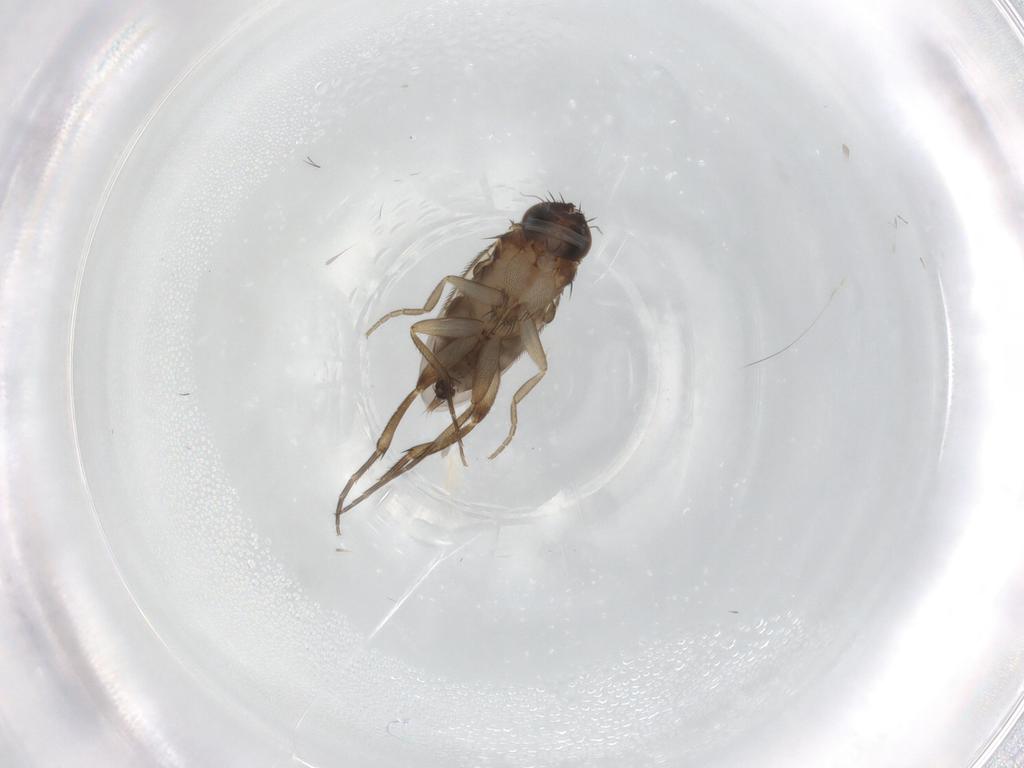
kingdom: Animalia
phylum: Arthropoda
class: Insecta
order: Diptera
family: Phoridae
